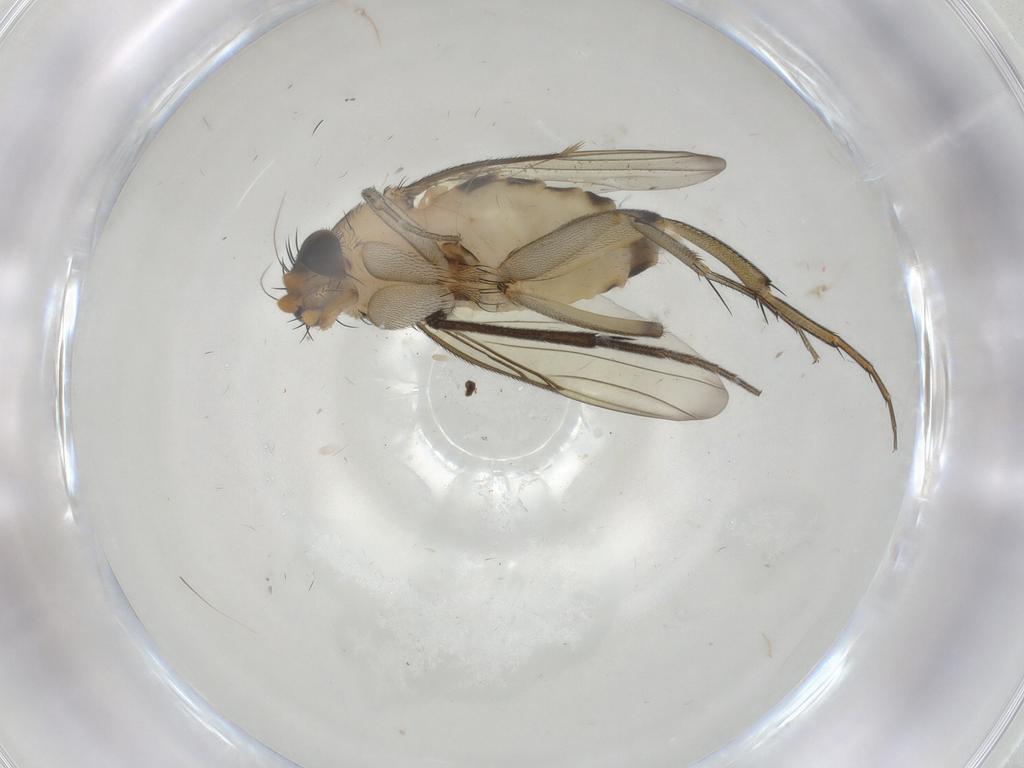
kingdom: Animalia
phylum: Arthropoda
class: Insecta
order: Diptera
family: Phoridae
